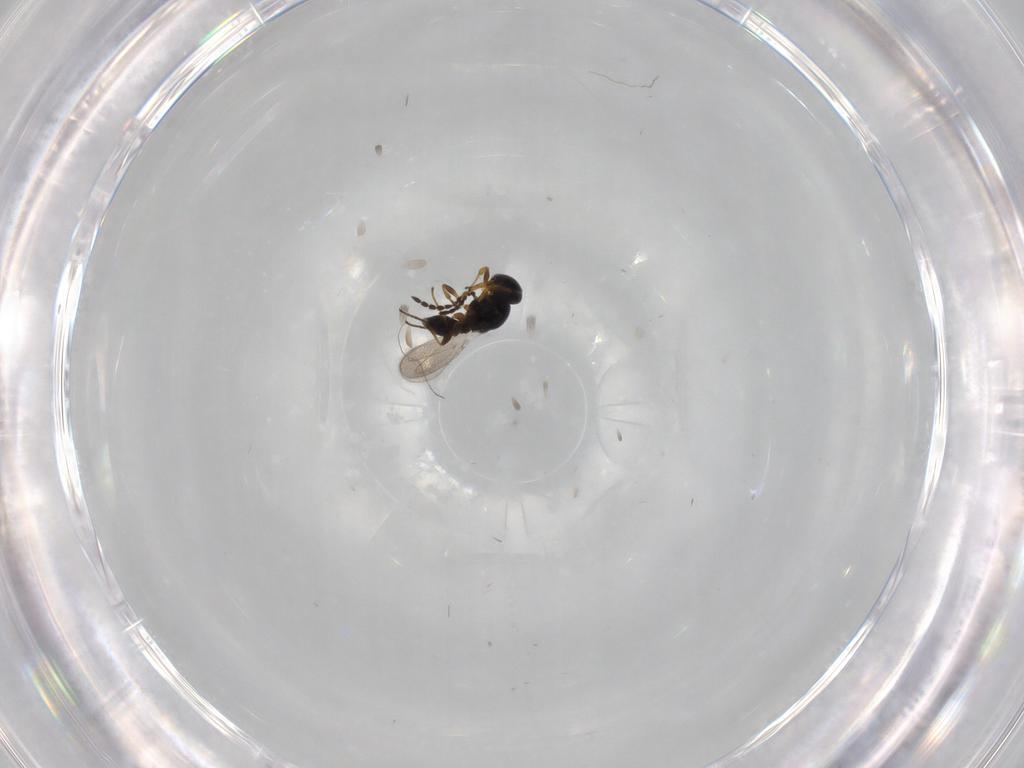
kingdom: Animalia
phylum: Arthropoda
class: Insecta
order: Hymenoptera
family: Platygastridae
